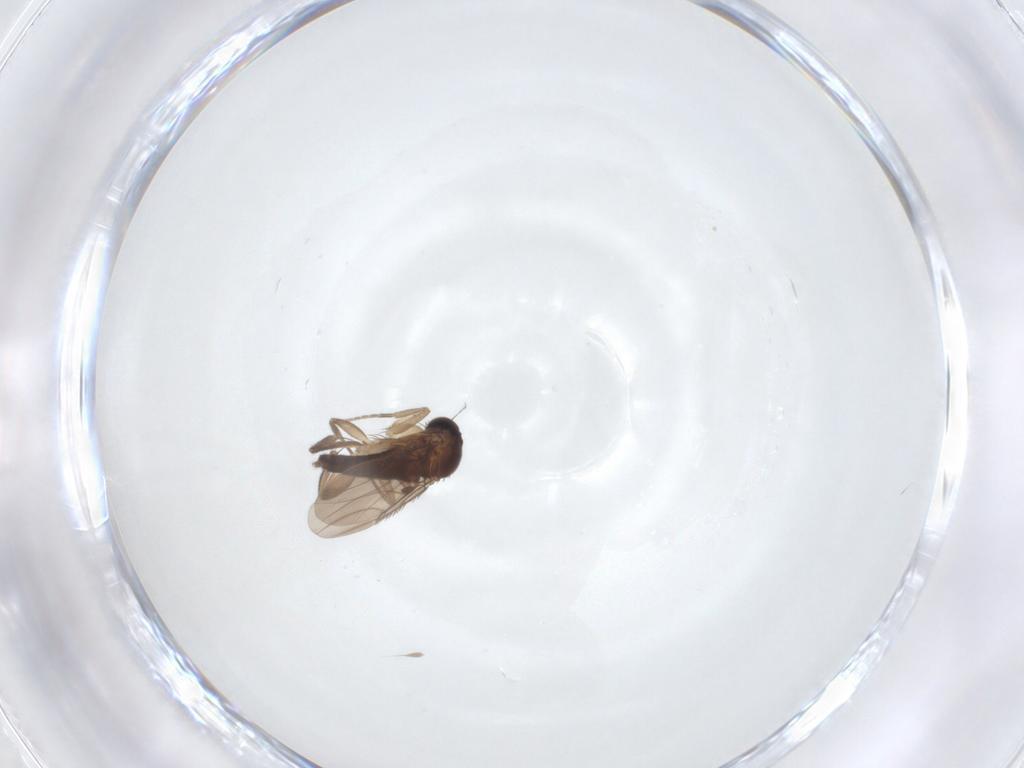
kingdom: Animalia
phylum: Arthropoda
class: Insecta
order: Diptera
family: Phoridae
